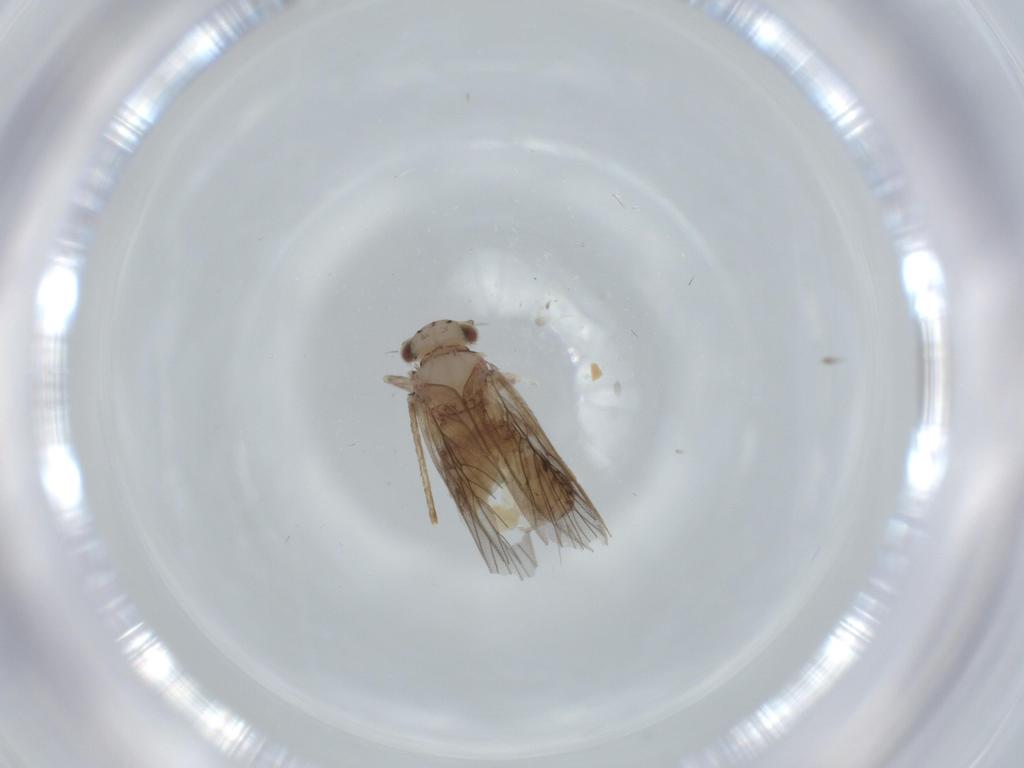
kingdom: Animalia
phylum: Arthropoda
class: Insecta
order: Psocodea
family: Lepidopsocidae
